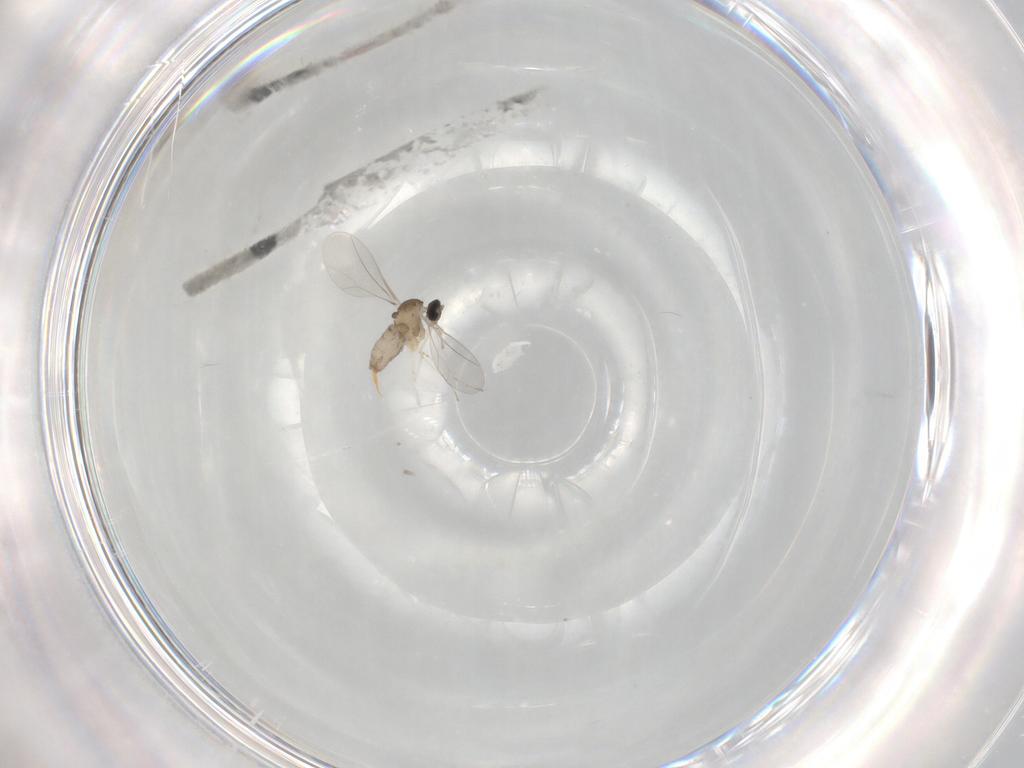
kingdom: Animalia
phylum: Arthropoda
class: Insecta
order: Diptera
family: Cecidomyiidae
